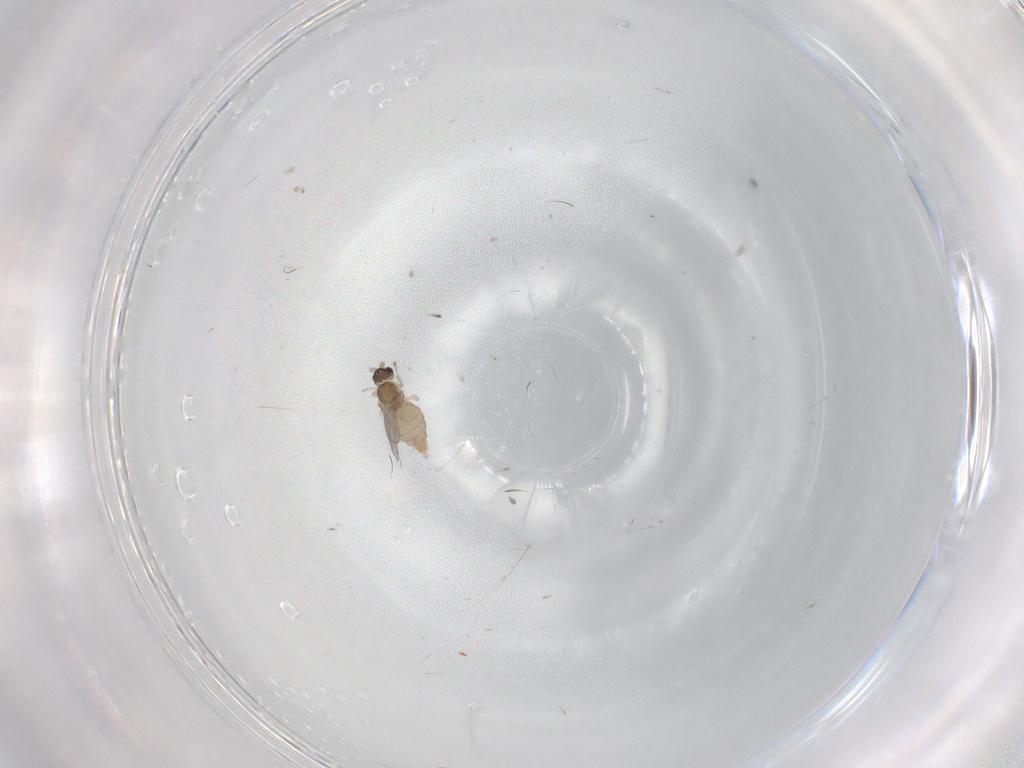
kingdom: Animalia
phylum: Arthropoda
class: Insecta
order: Diptera
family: Cecidomyiidae
